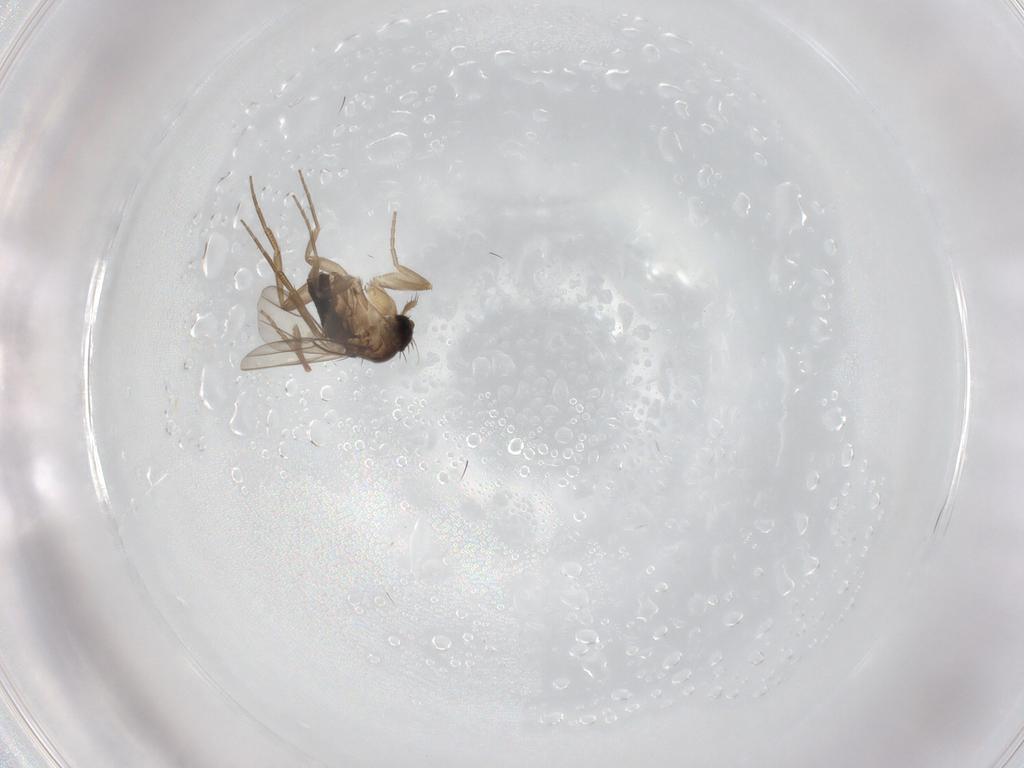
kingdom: Animalia
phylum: Arthropoda
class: Insecta
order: Diptera
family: Phoridae
